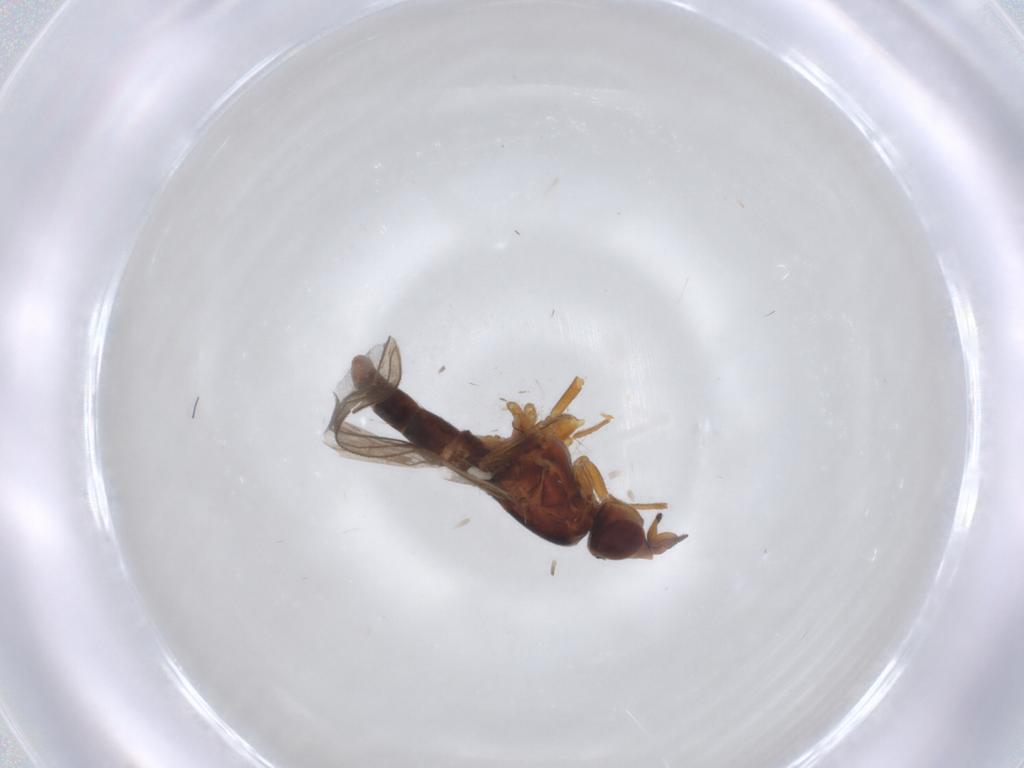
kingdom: Animalia
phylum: Arthropoda
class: Insecta
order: Diptera
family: Chloropidae
